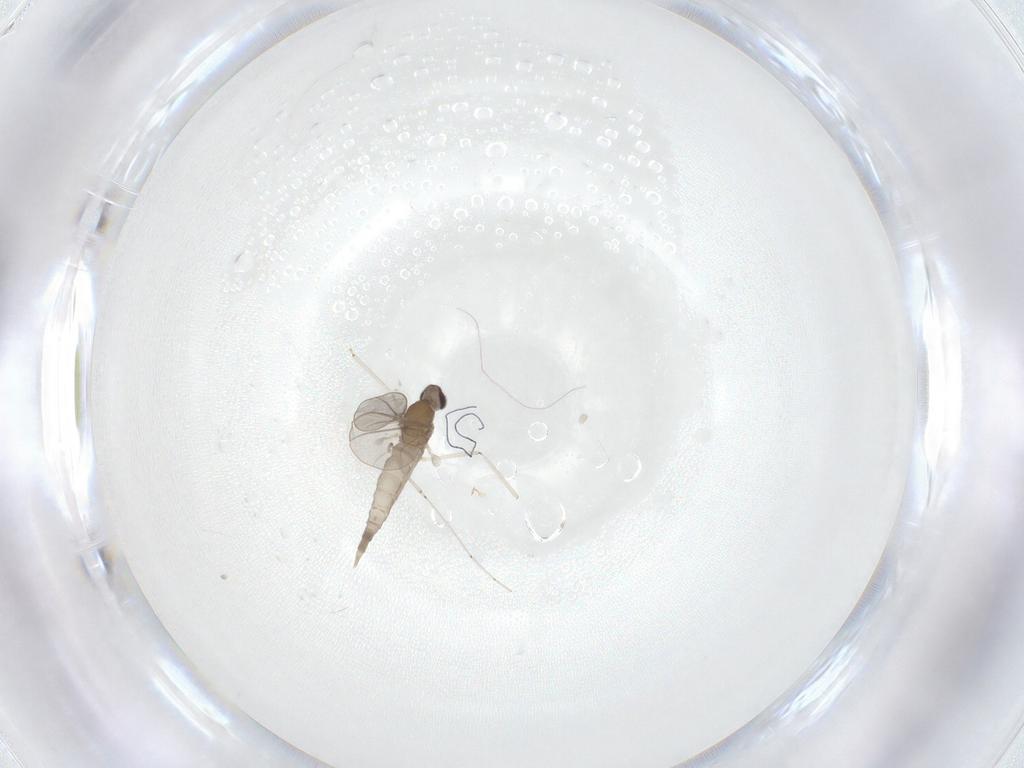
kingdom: Animalia
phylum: Arthropoda
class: Insecta
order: Diptera
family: Cecidomyiidae
